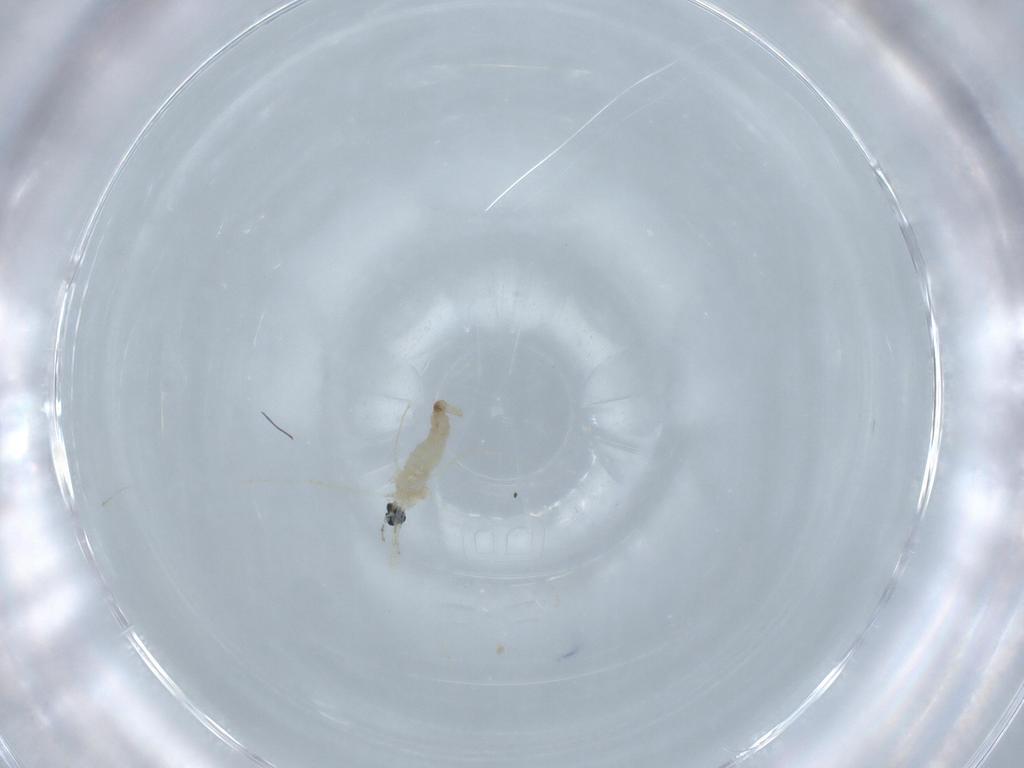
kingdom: Animalia
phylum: Arthropoda
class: Insecta
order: Diptera
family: Cecidomyiidae
